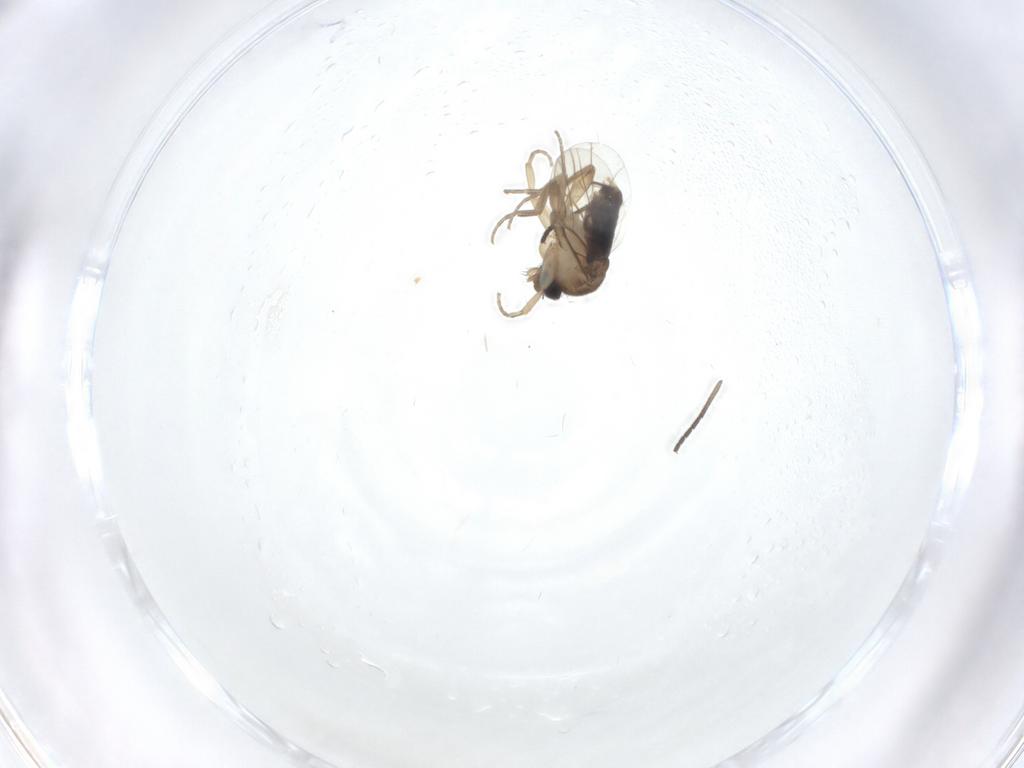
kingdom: Animalia
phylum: Arthropoda
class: Insecta
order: Diptera
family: Phoridae
